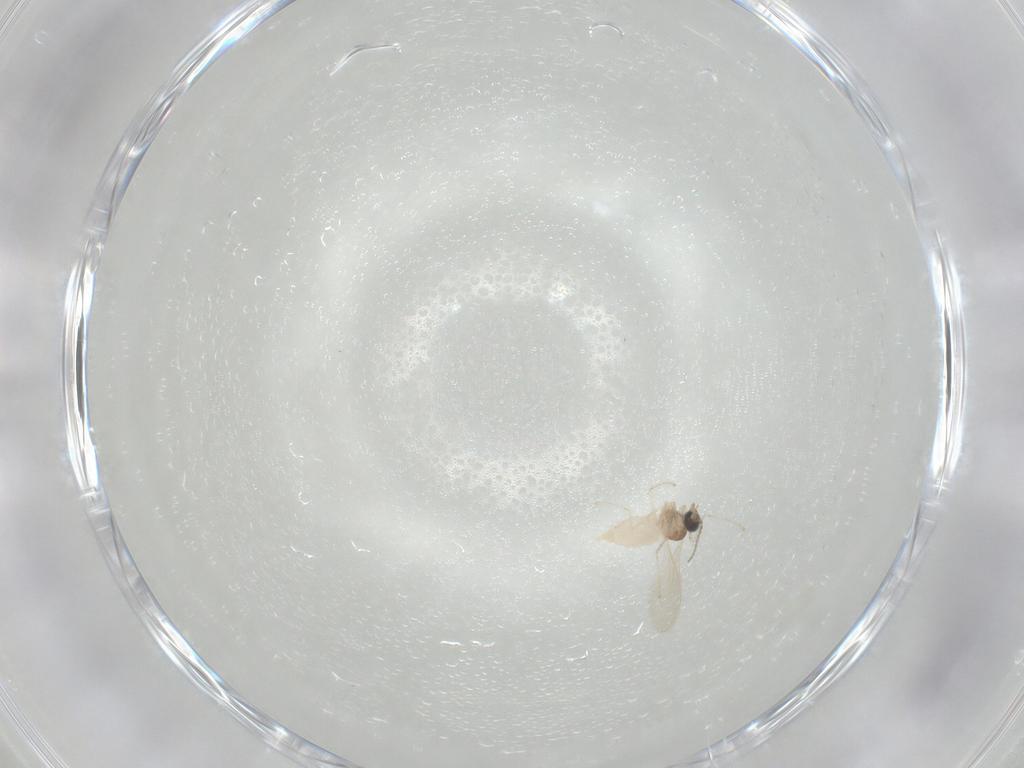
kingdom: Animalia
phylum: Arthropoda
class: Insecta
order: Diptera
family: Cecidomyiidae
